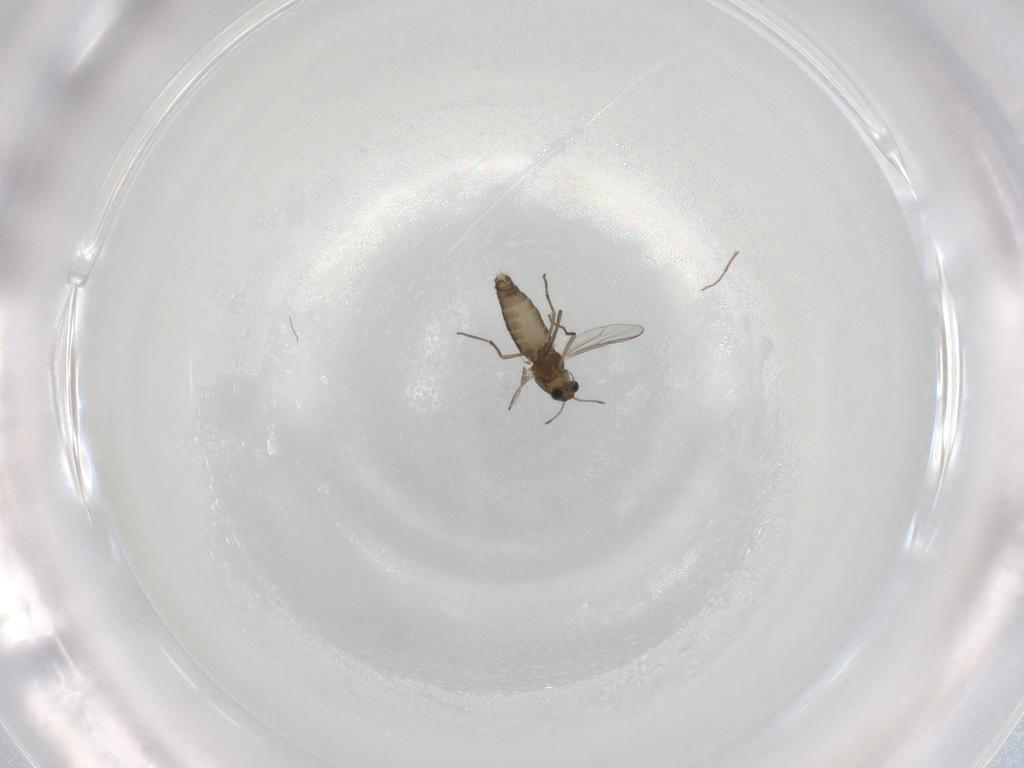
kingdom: Animalia
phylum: Arthropoda
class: Insecta
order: Diptera
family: Chironomidae
